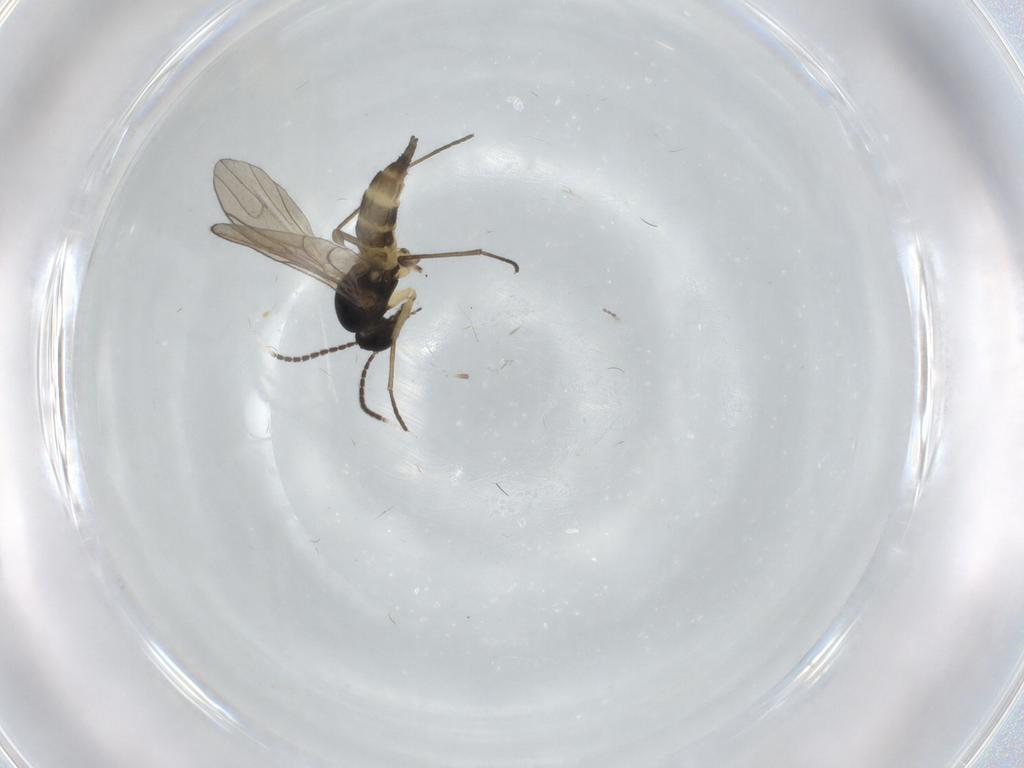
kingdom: Animalia
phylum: Arthropoda
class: Insecta
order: Diptera
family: Sciaridae
